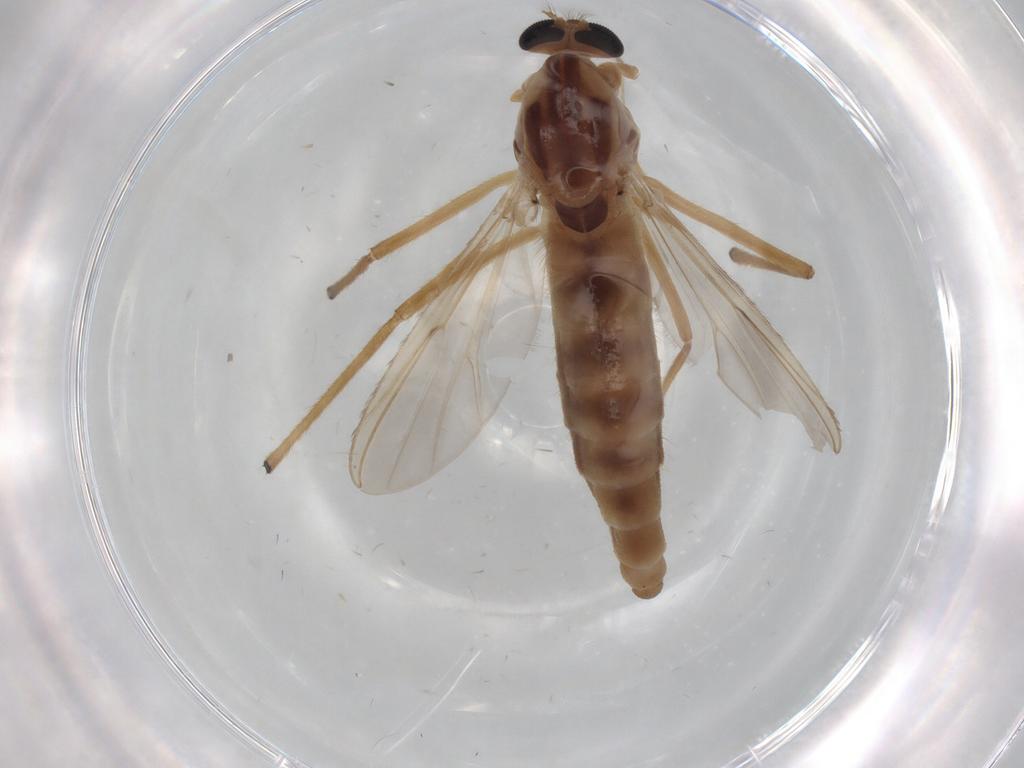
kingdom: Animalia
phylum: Arthropoda
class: Insecta
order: Diptera
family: Chironomidae
